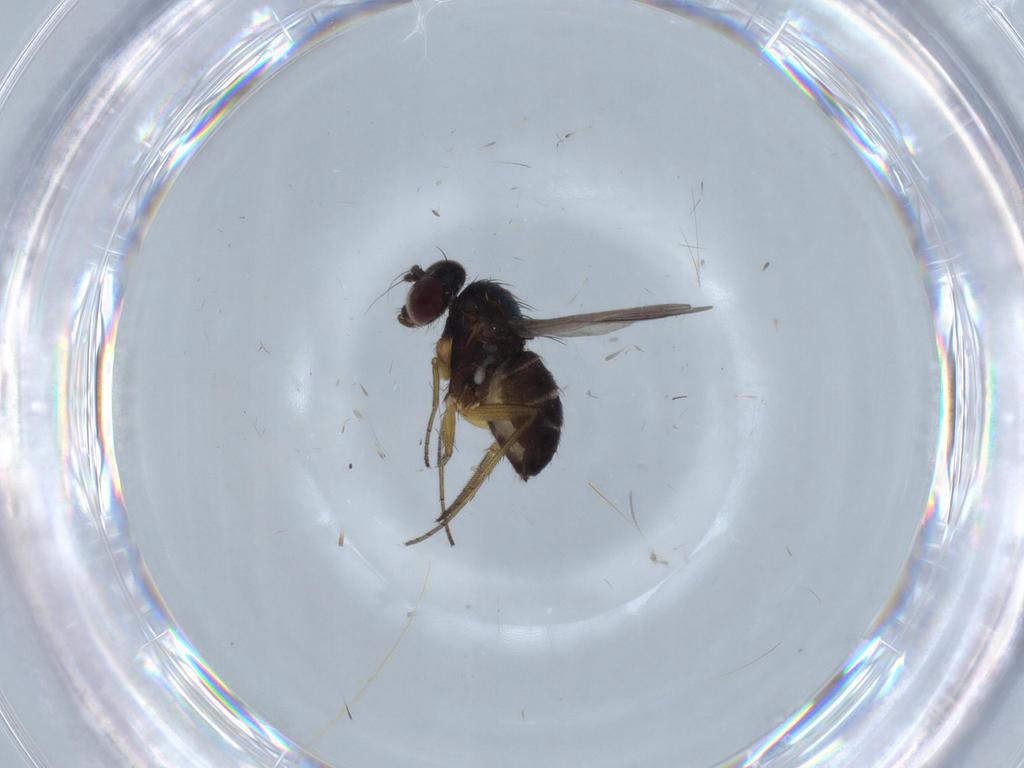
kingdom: Animalia
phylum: Arthropoda
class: Insecta
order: Diptera
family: Dolichopodidae
